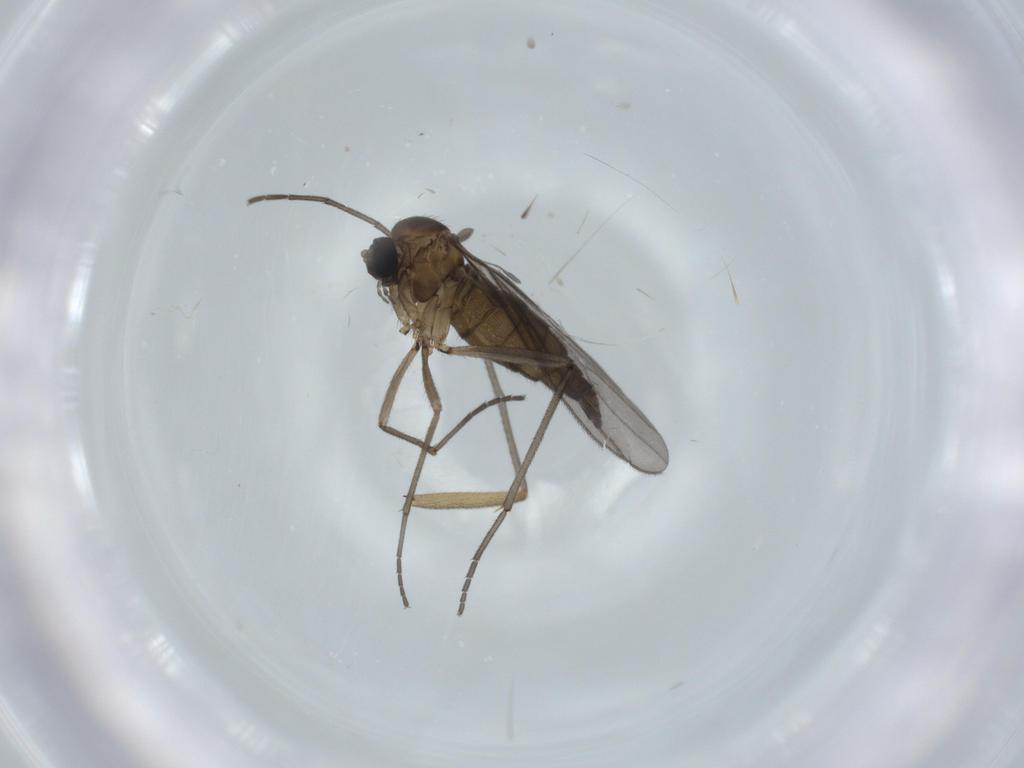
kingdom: Animalia
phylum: Arthropoda
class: Insecta
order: Diptera
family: Sciaridae
